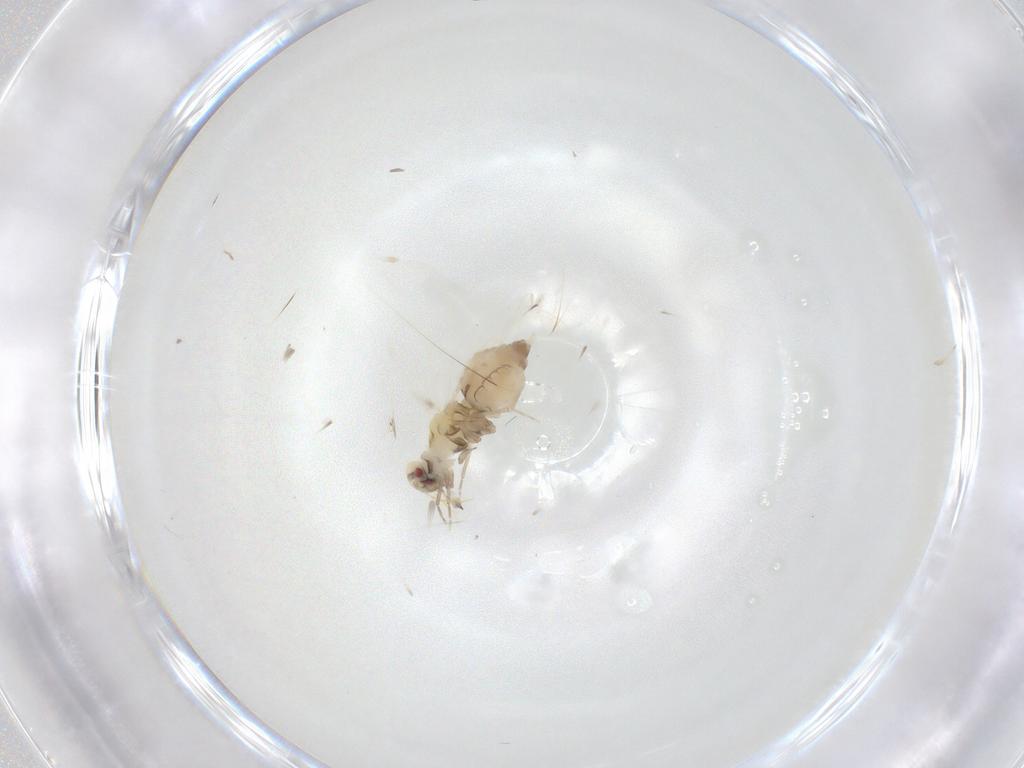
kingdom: Animalia
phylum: Arthropoda
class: Insecta
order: Hemiptera
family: Aleyrodidae
